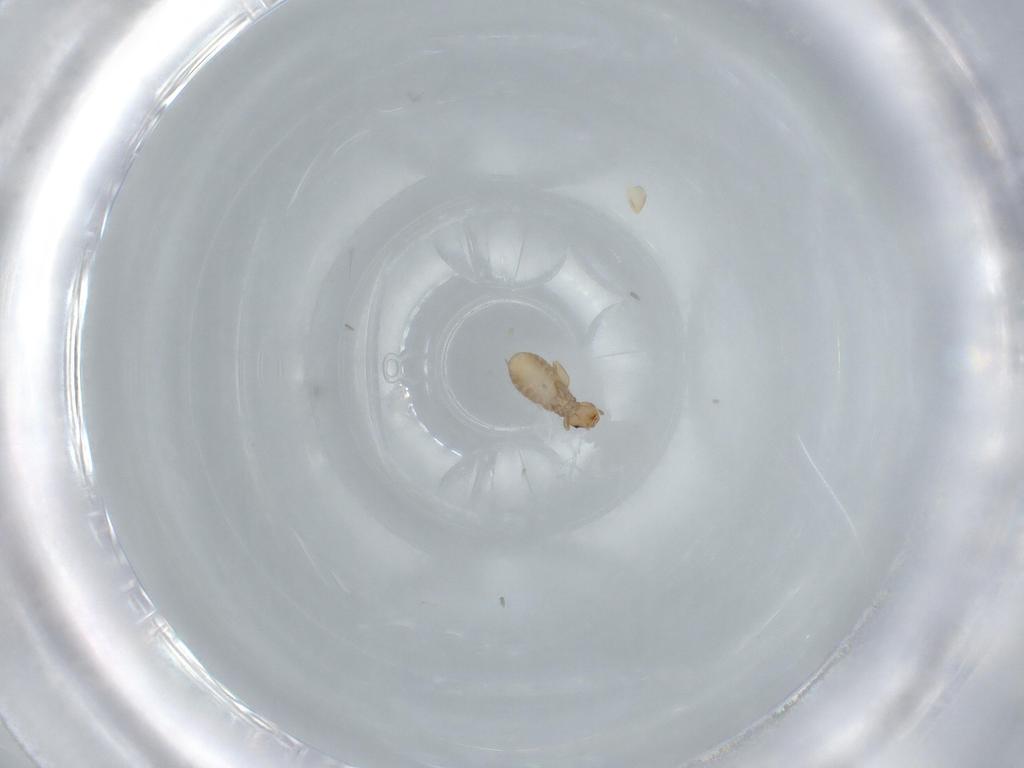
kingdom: Animalia
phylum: Arthropoda
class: Insecta
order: Psocodea
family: Liposcelididae
